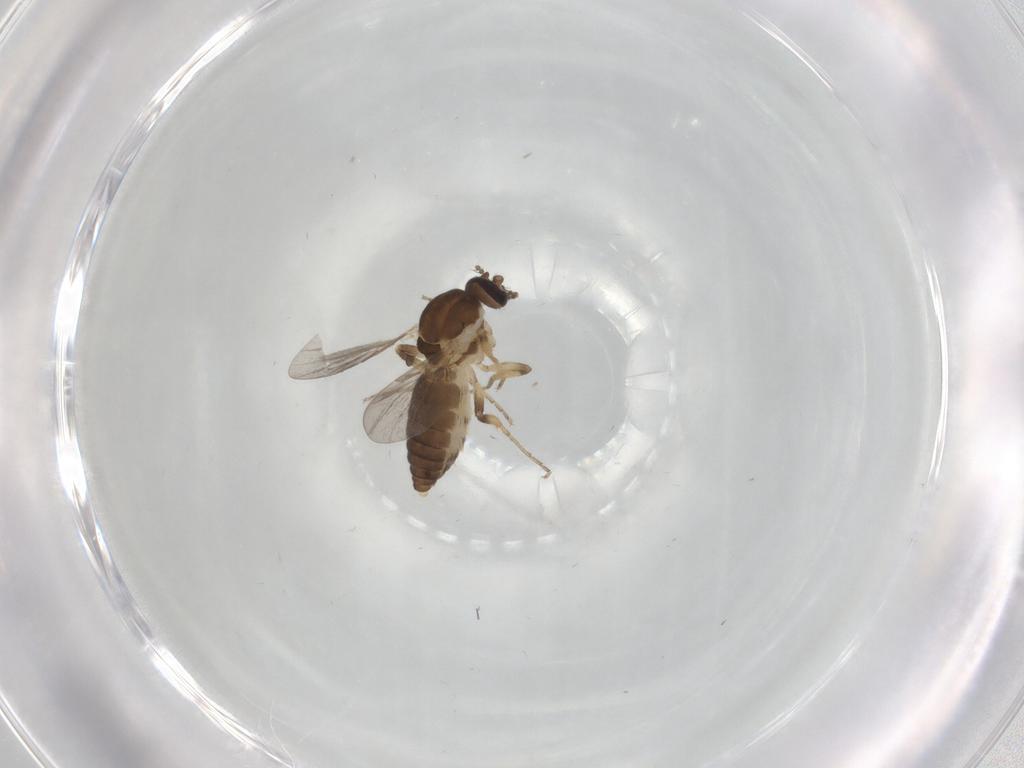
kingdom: Animalia
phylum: Arthropoda
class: Insecta
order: Diptera
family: Ceratopogonidae
